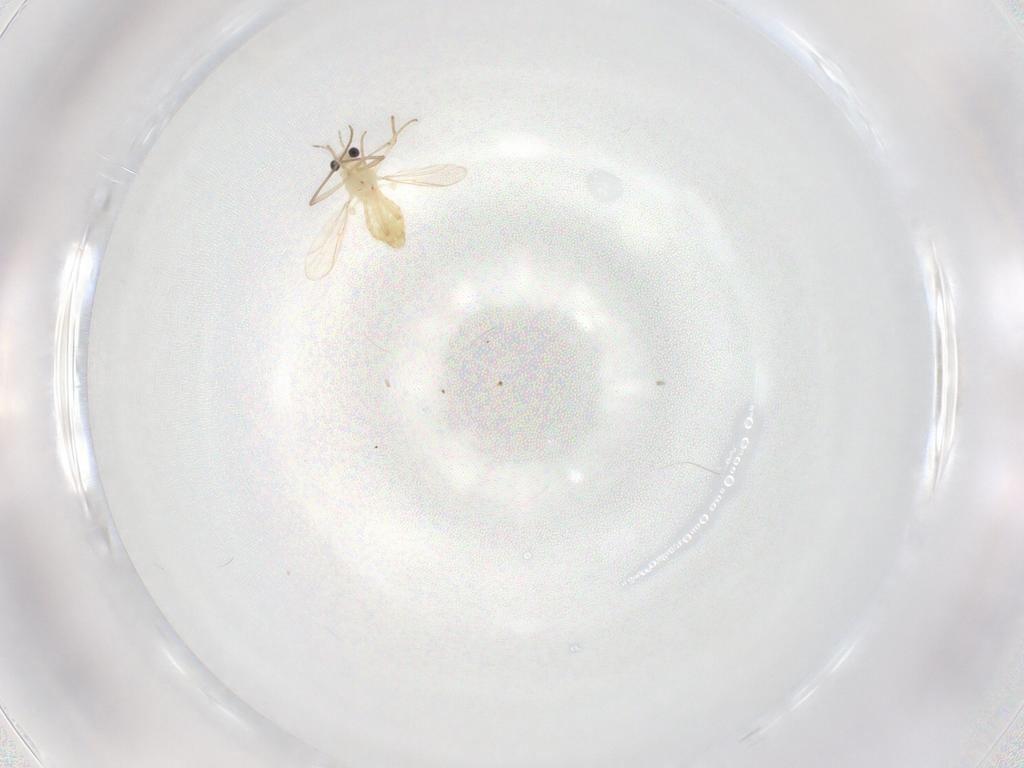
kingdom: Animalia
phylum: Arthropoda
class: Insecta
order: Diptera
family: Chironomidae
